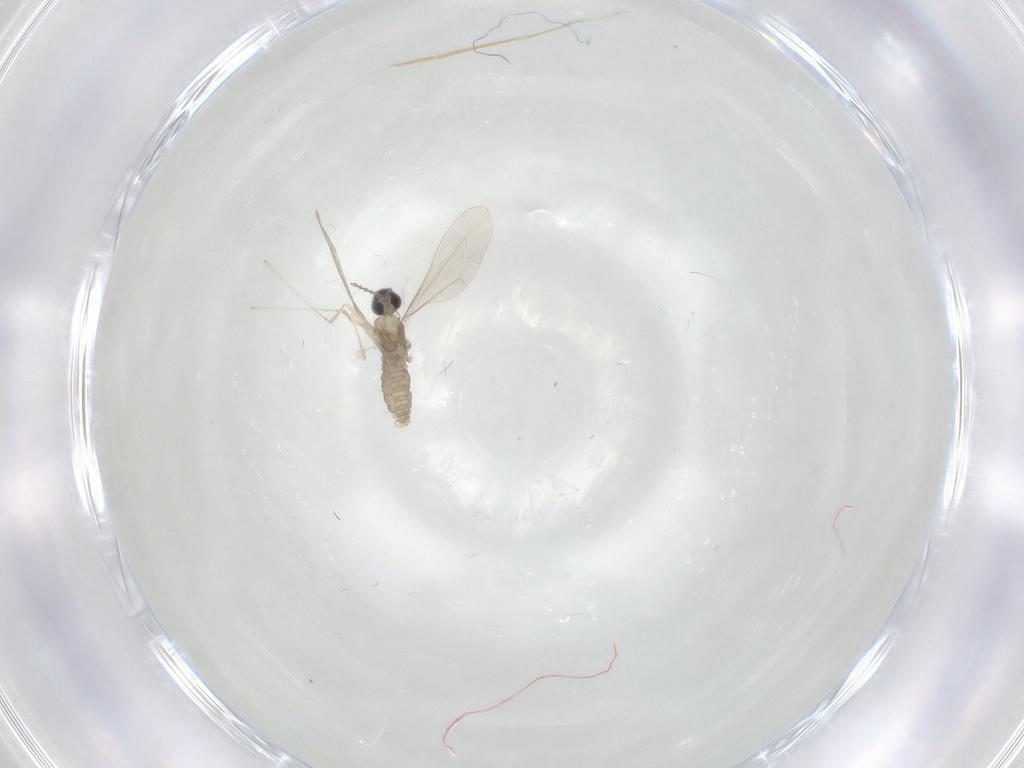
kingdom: Animalia
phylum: Arthropoda
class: Insecta
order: Diptera
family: Cecidomyiidae
